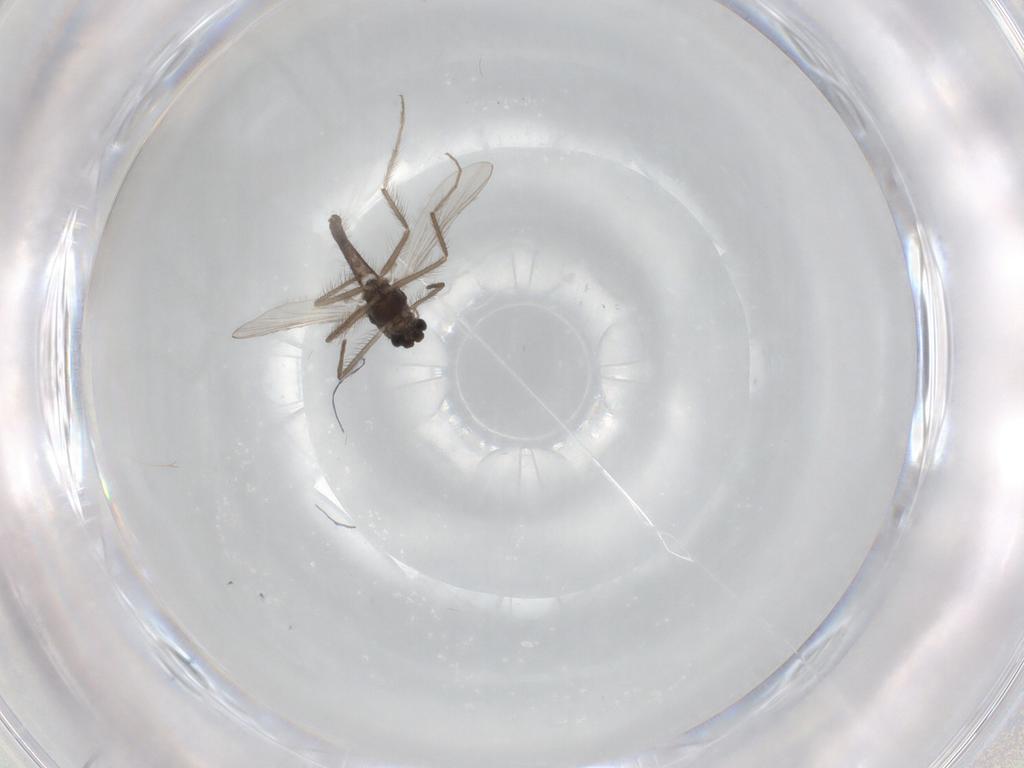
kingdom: Animalia
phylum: Arthropoda
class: Insecta
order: Diptera
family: Chironomidae
